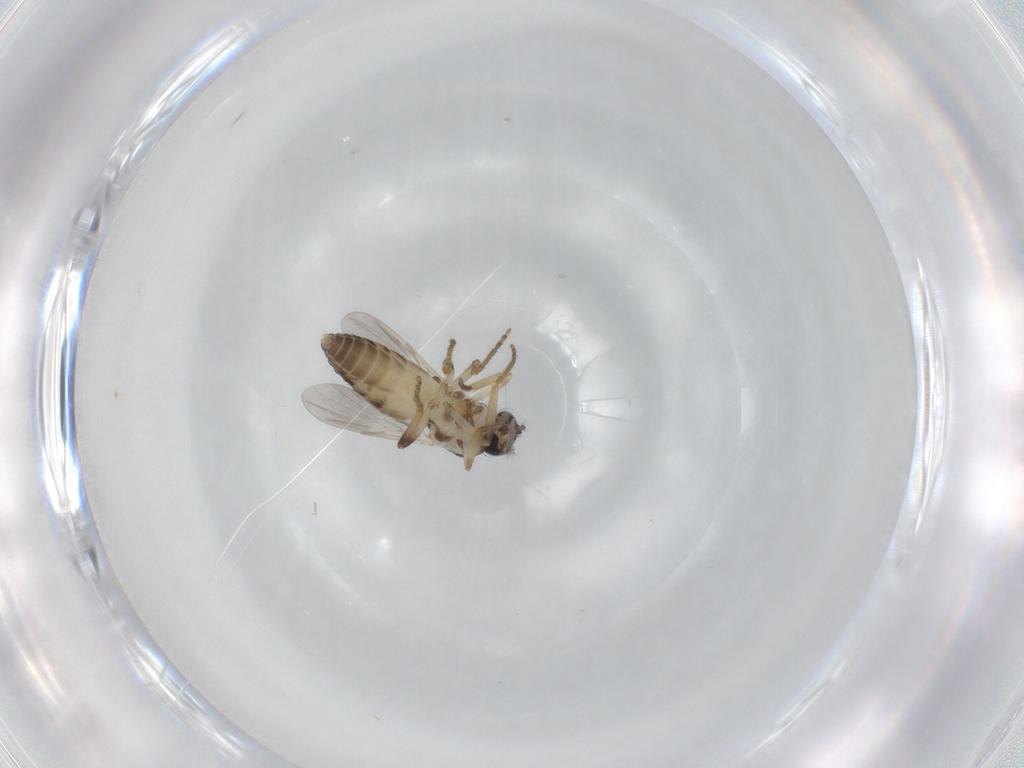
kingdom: Animalia
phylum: Arthropoda
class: Insecta
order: Diptera
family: Ceratopogonidae
